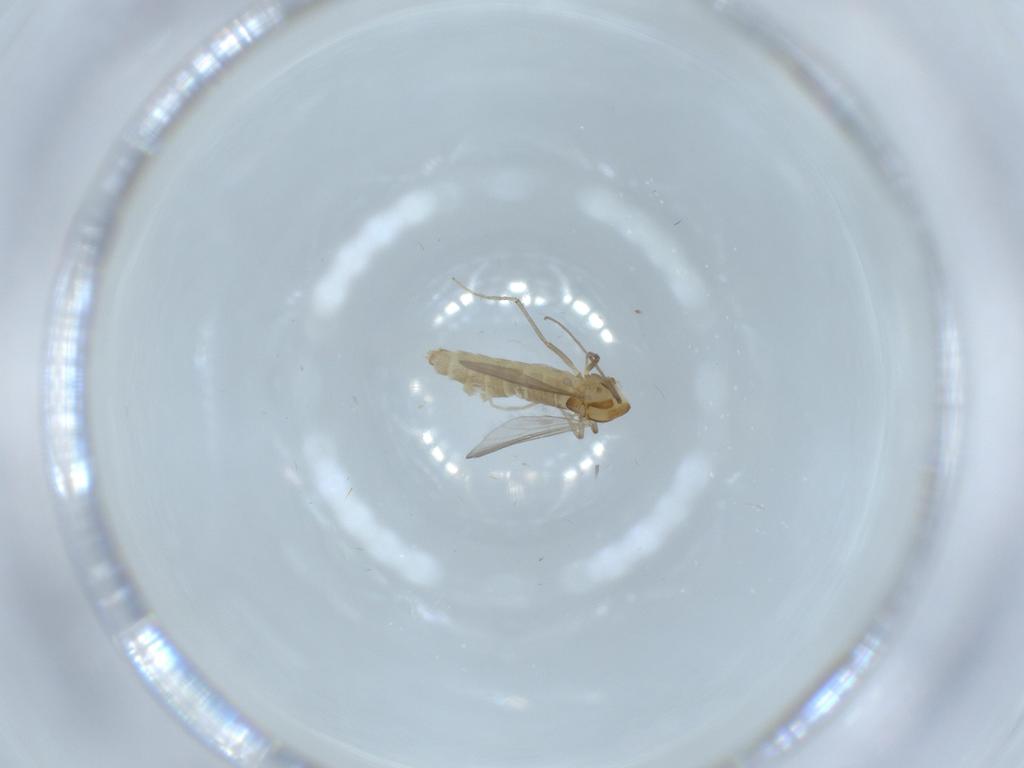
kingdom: Animalia
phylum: Arthropoda
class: Insecta
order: Diptera
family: Chironomidae
